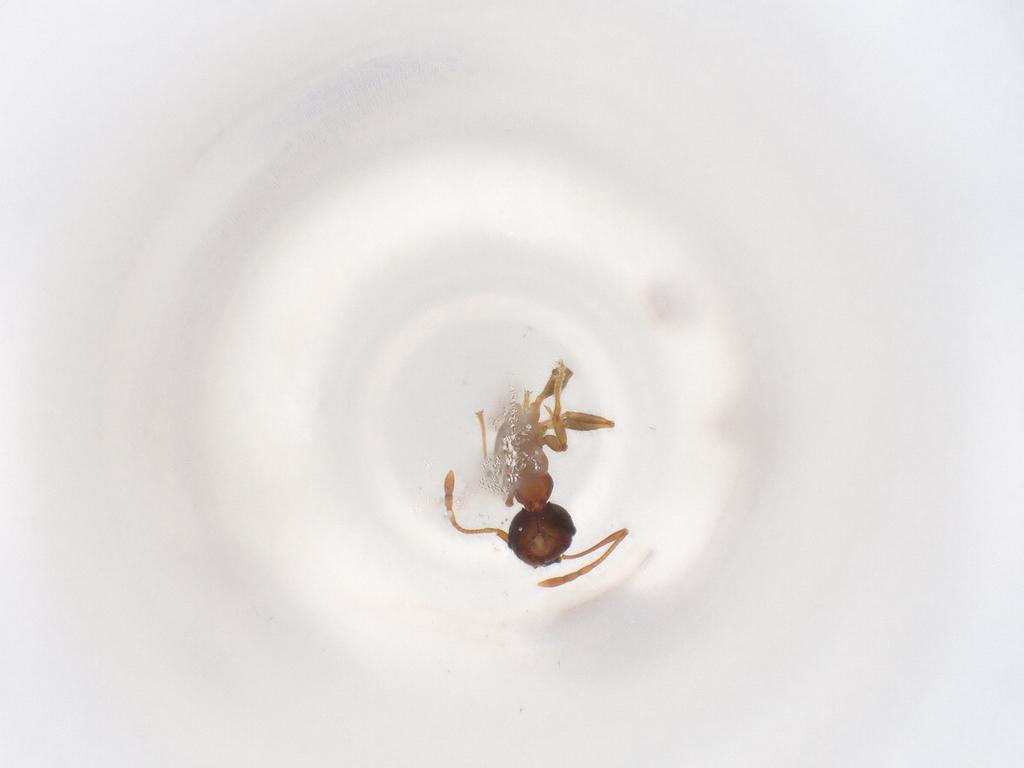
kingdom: Animalia
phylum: Arthropoda
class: Insecta
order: Hymenoptera
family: Formicidae
